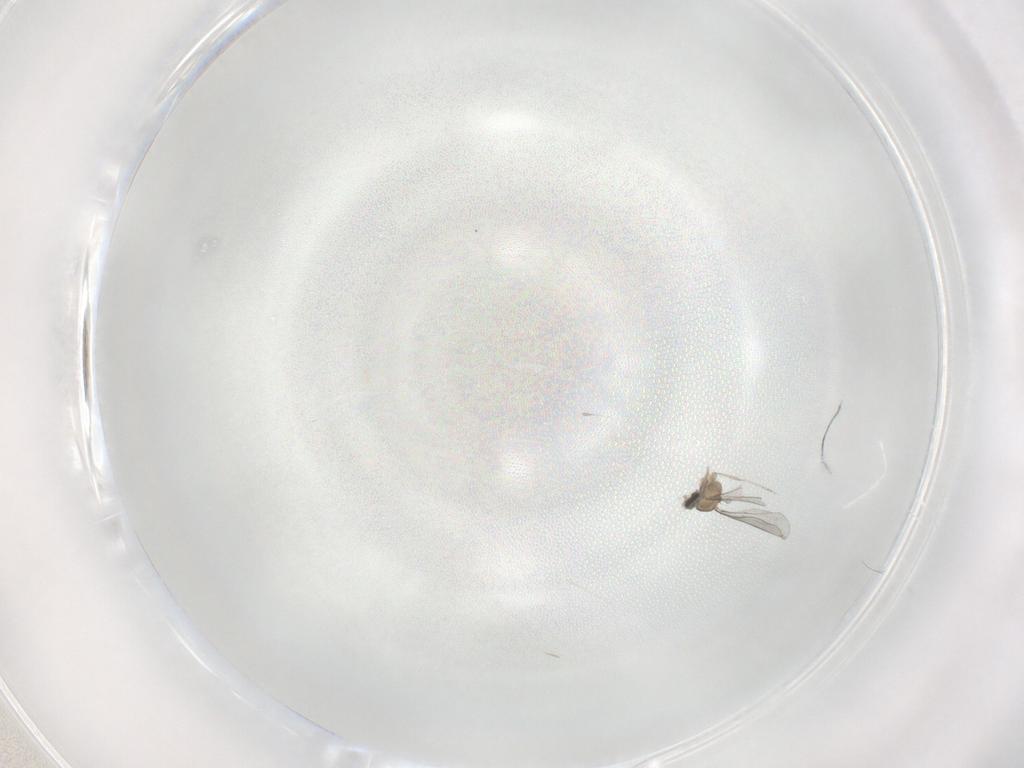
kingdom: Animalia
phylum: Arthropoda
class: Insecta
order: Diptera
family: Cecidomyiidae
